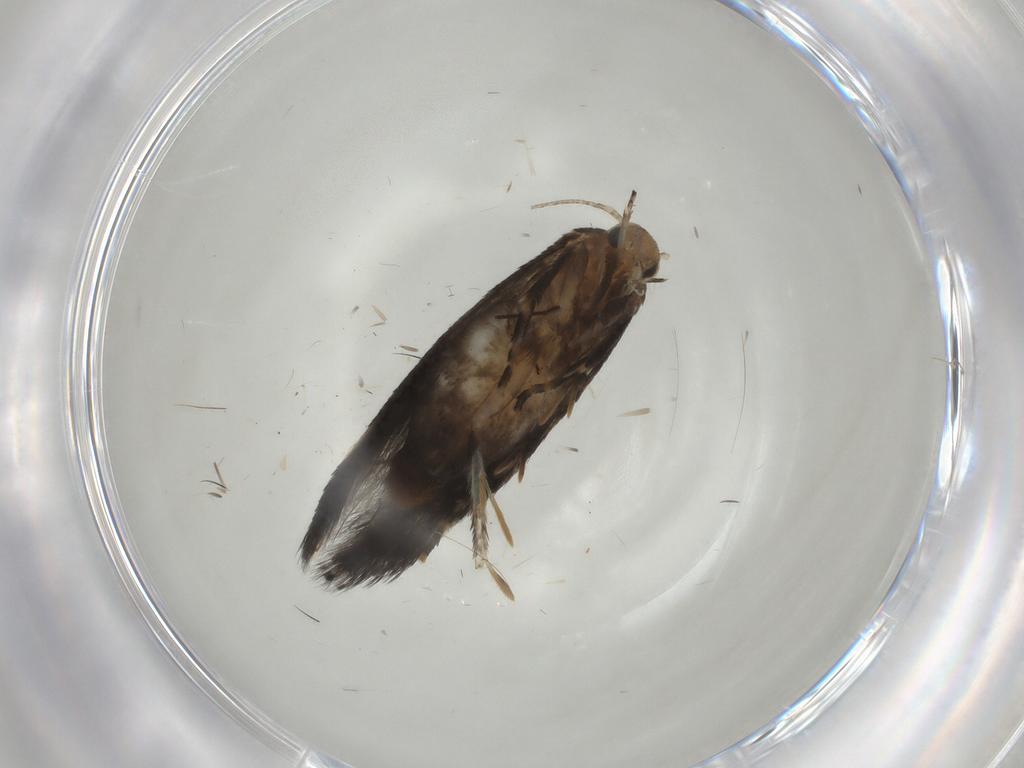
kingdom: Animalia
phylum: Arthropoda
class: Insecta
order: Lepidoptera
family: Elachistidae
